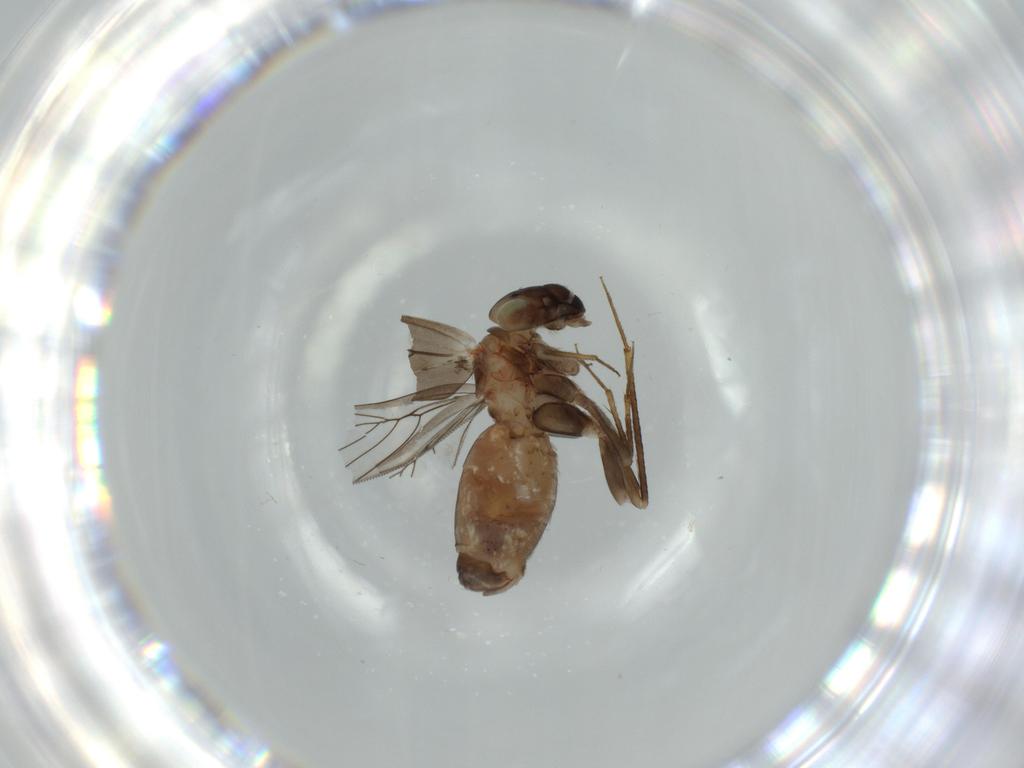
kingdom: Animalia
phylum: Arthropoda
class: Insecta
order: Psocodea
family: Lepidopsocidae
